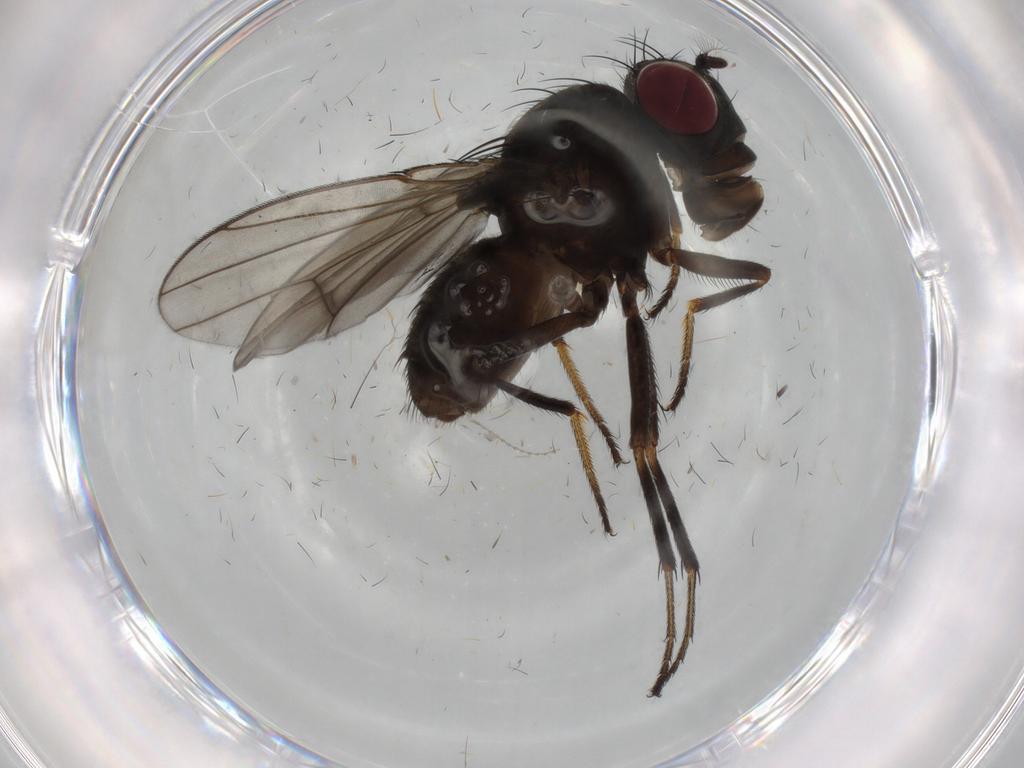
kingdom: Animalia
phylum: Arthropoda
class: Insecta
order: Diptera
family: Ephydridae
